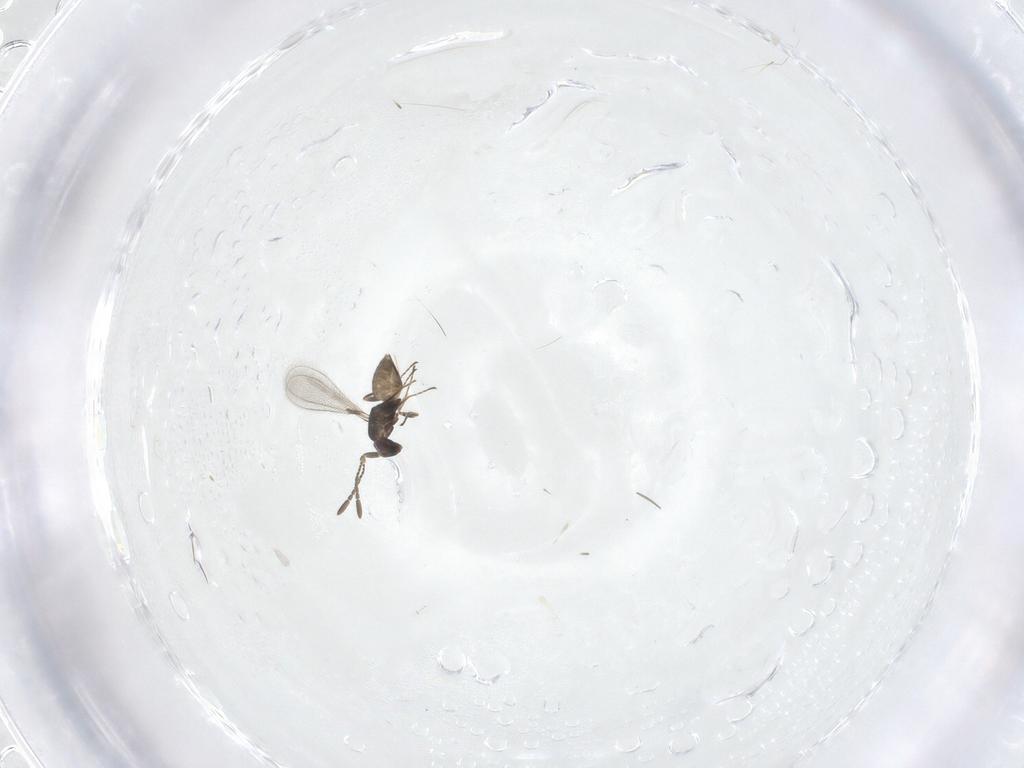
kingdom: Animalia
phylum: Arthropoda
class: Insecta
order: Hymenoptera
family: Mymaridae
